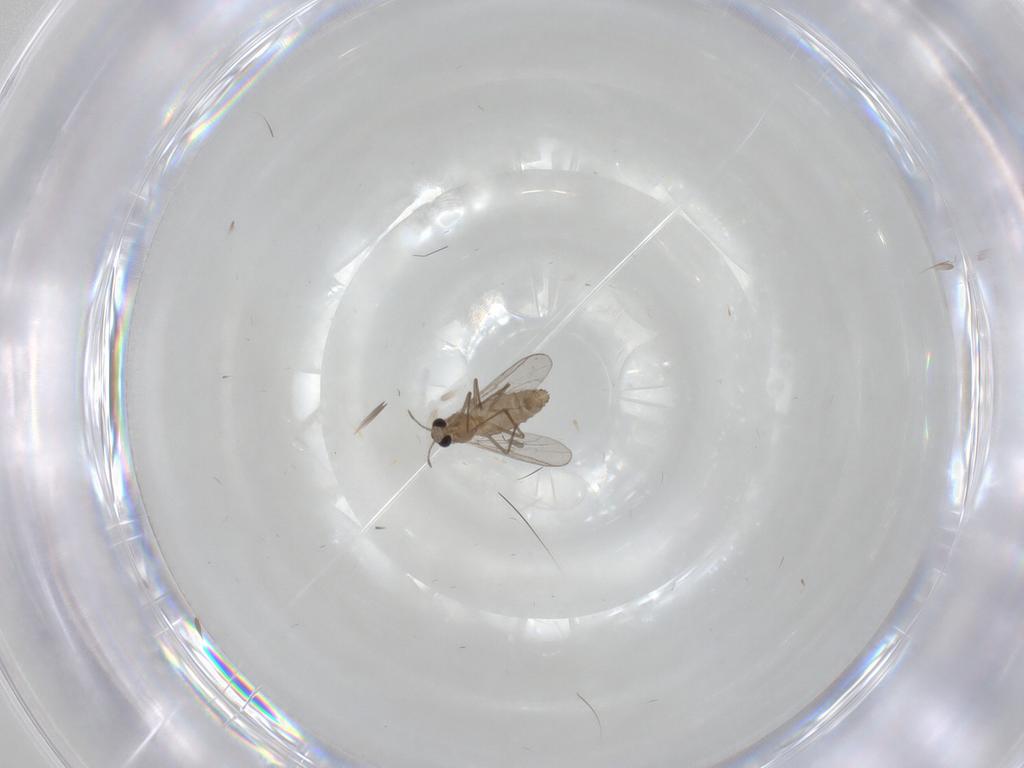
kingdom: Animalia
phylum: Arthropoda
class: Insecta
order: Diptera
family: Chironomidae
